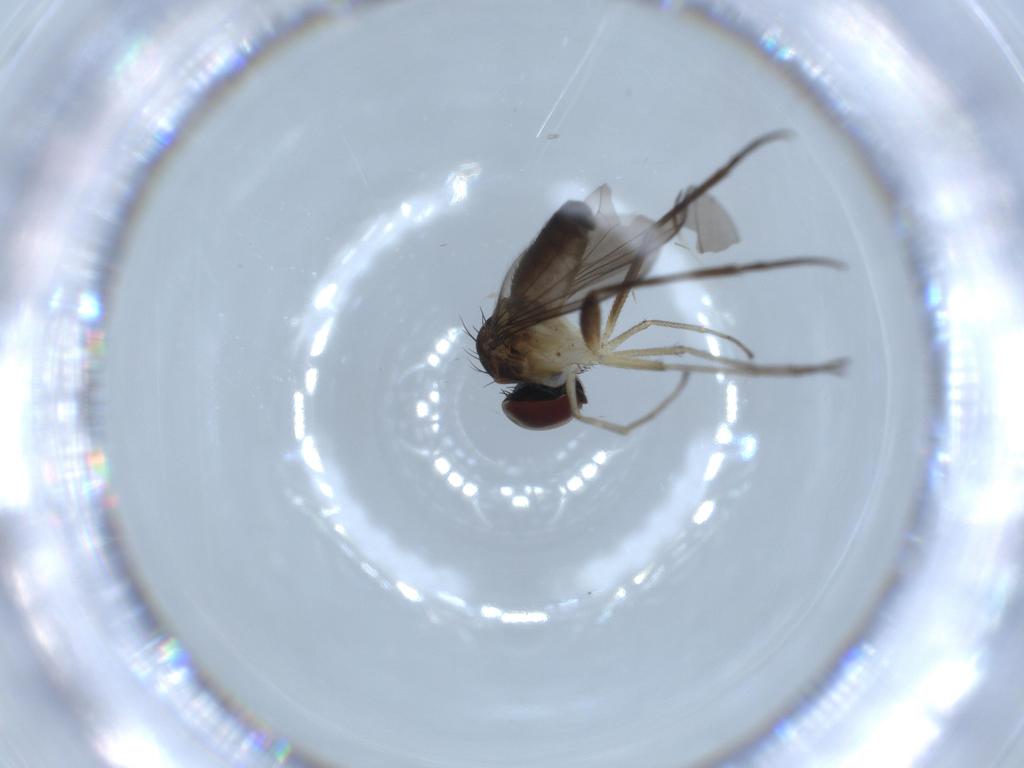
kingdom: Animalia
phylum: Arthropoda
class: Insecta
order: Diptera
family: Dolichopodidae
